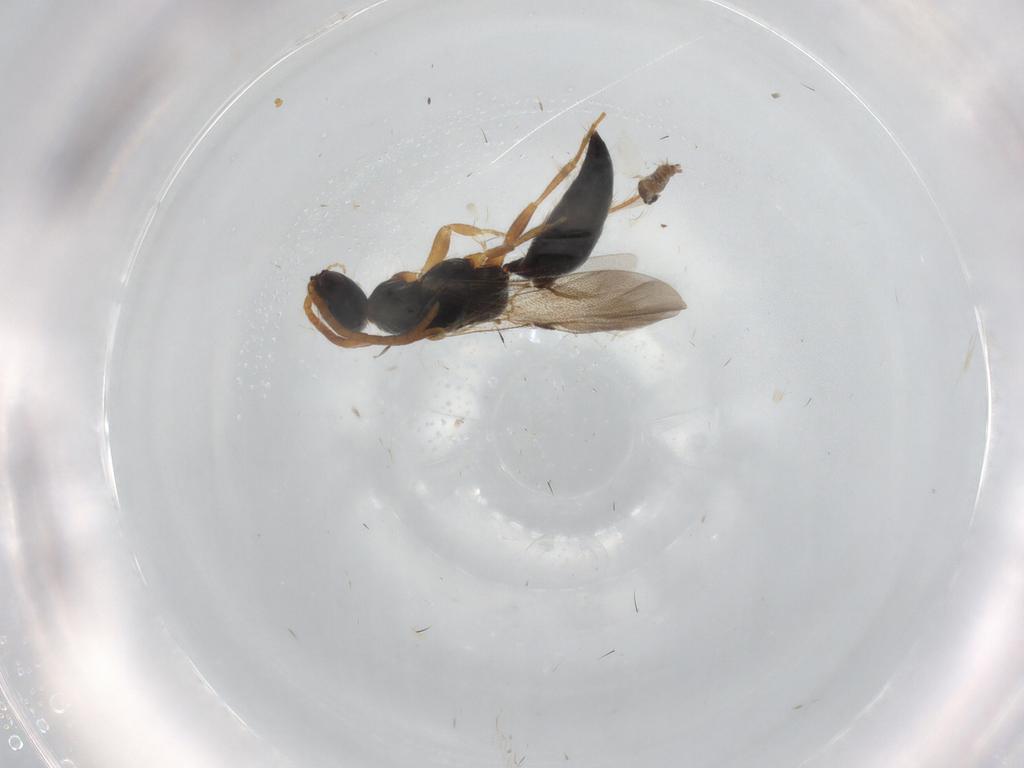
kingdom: Animalia
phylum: Arthropoda
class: Insecta
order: Hymenoptera
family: Bethylidae
